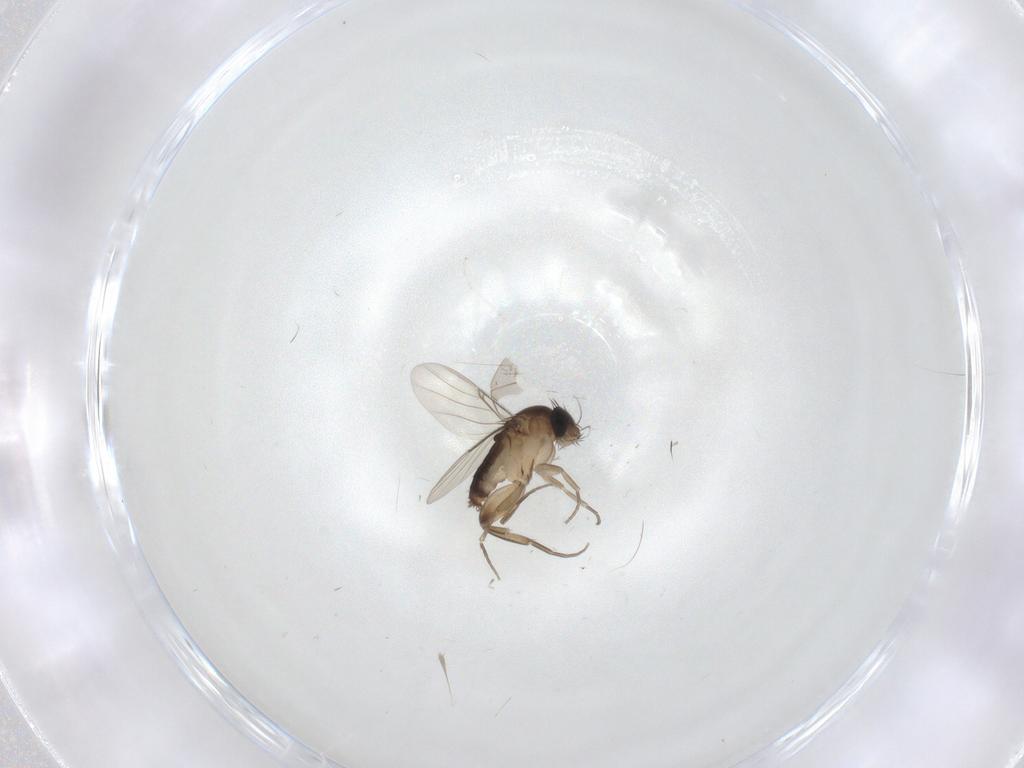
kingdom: Animalia
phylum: Arthropoda
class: Insecta
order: Diptera
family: Phoridae
